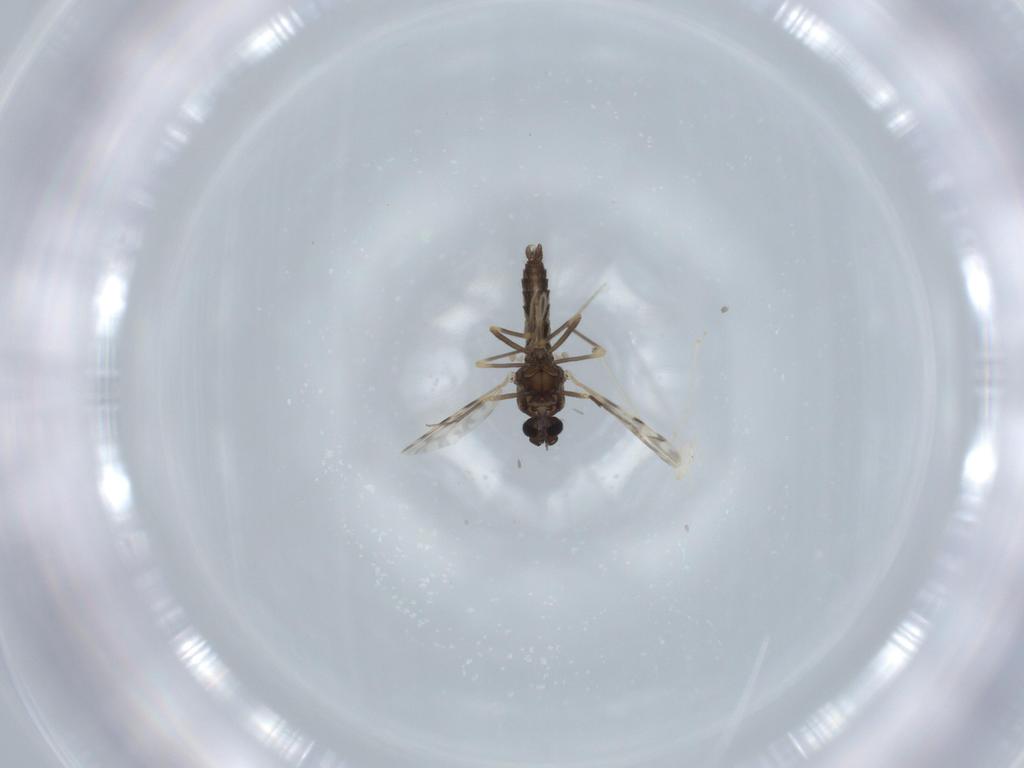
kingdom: Animalia
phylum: Arthropoda
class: Insecta
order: Diptera
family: Ceratopogonidae
